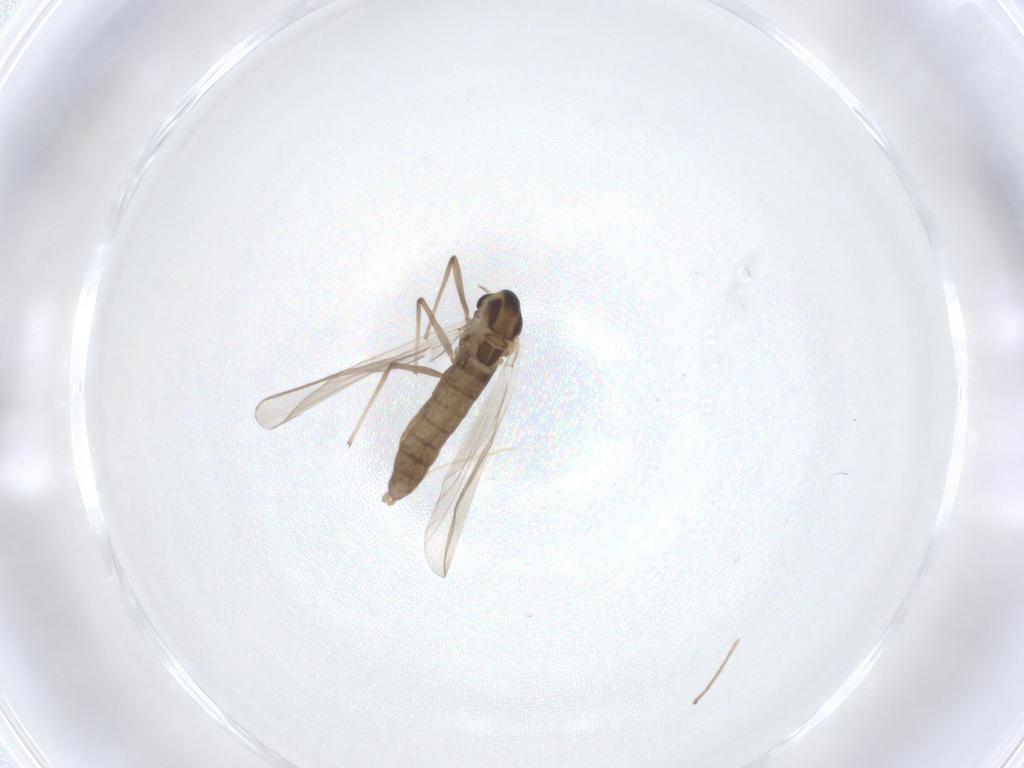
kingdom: Animalia
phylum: Arthropoda
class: Insecta
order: Diptera
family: Chironomidae
